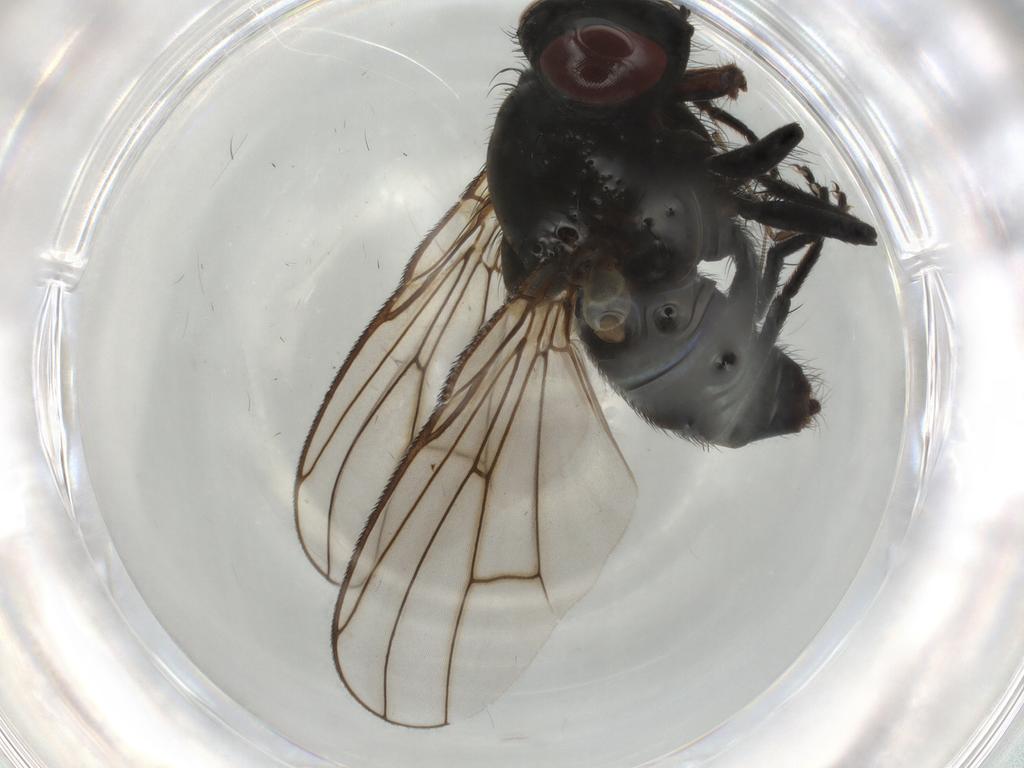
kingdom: Animalia
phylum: Arthropoda
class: Insecta
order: Diptera
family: Muscidae
